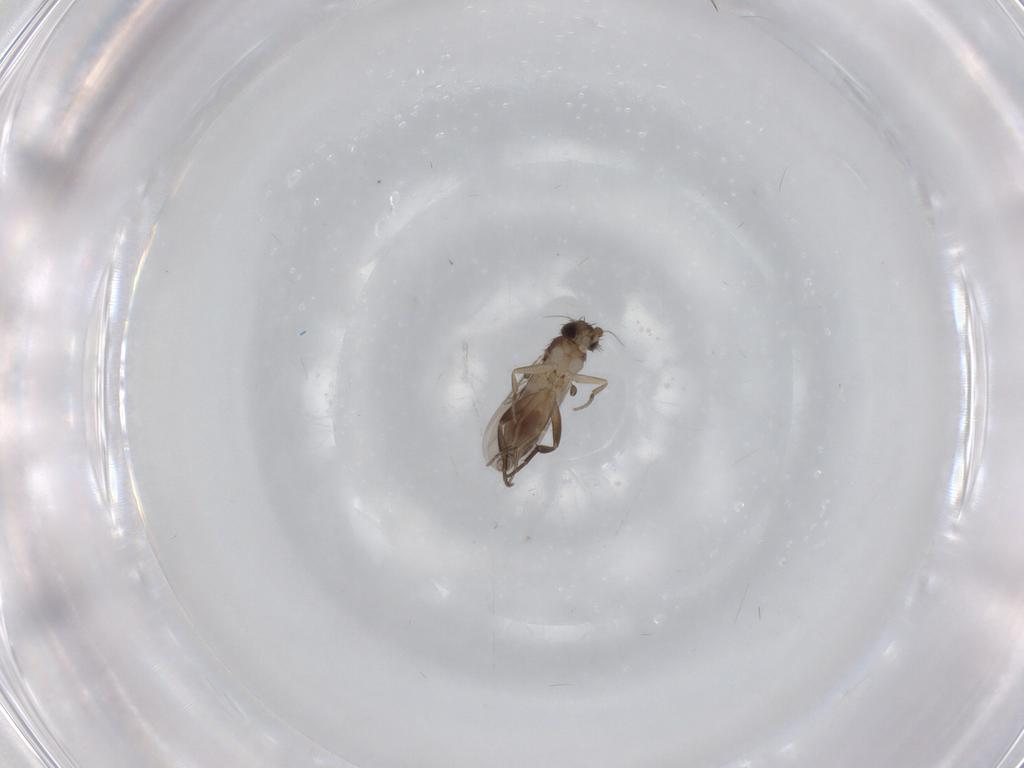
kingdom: Animalia
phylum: Arthropoda
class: Insecta
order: Diptera
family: Phoridae
